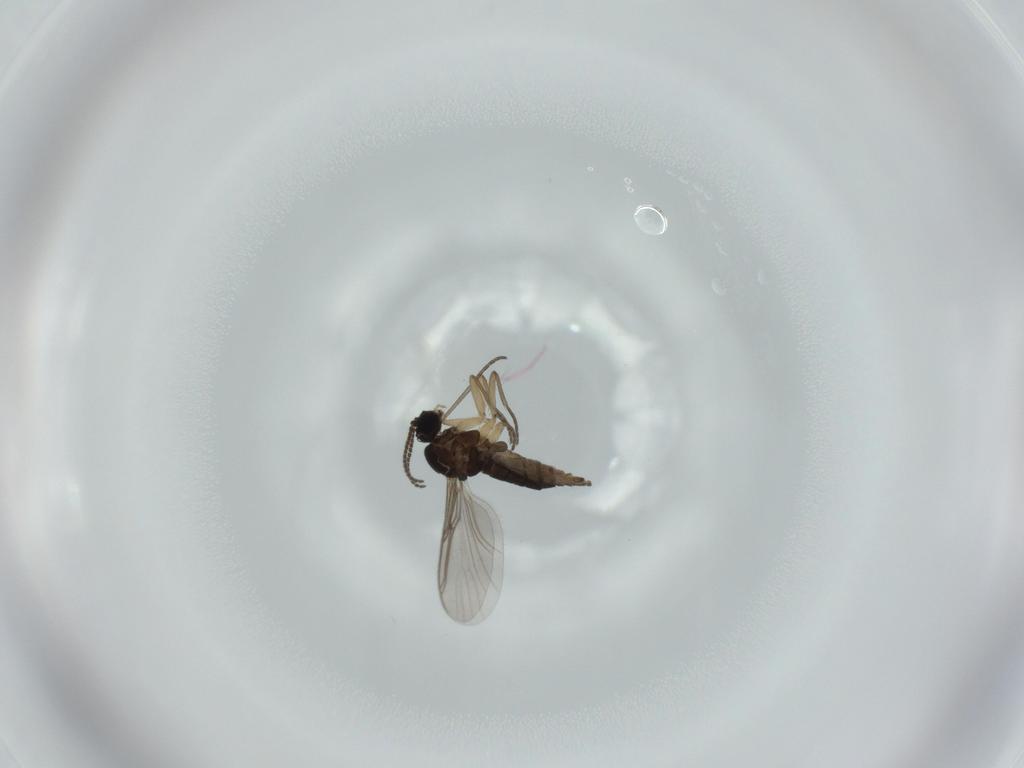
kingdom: Animalia
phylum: Arthropoda
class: Insecta
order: Diptera
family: Sciaridae
